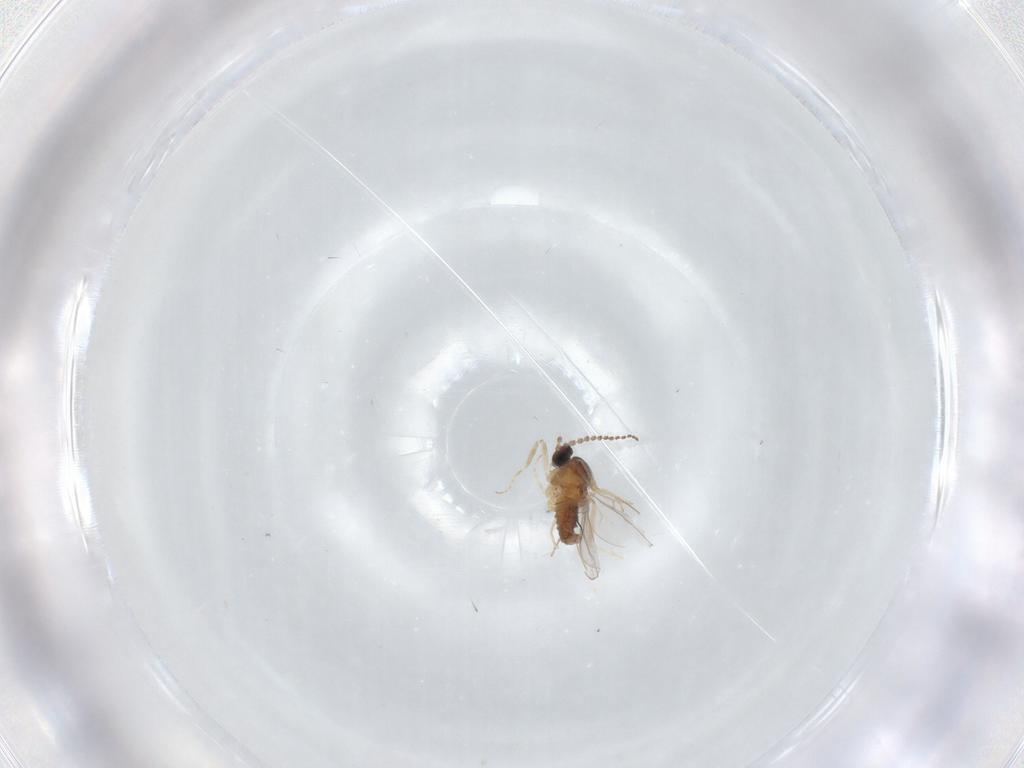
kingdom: Animalia
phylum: Arthropoda
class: Insecta
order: Diptera
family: Cecidomyiidae
